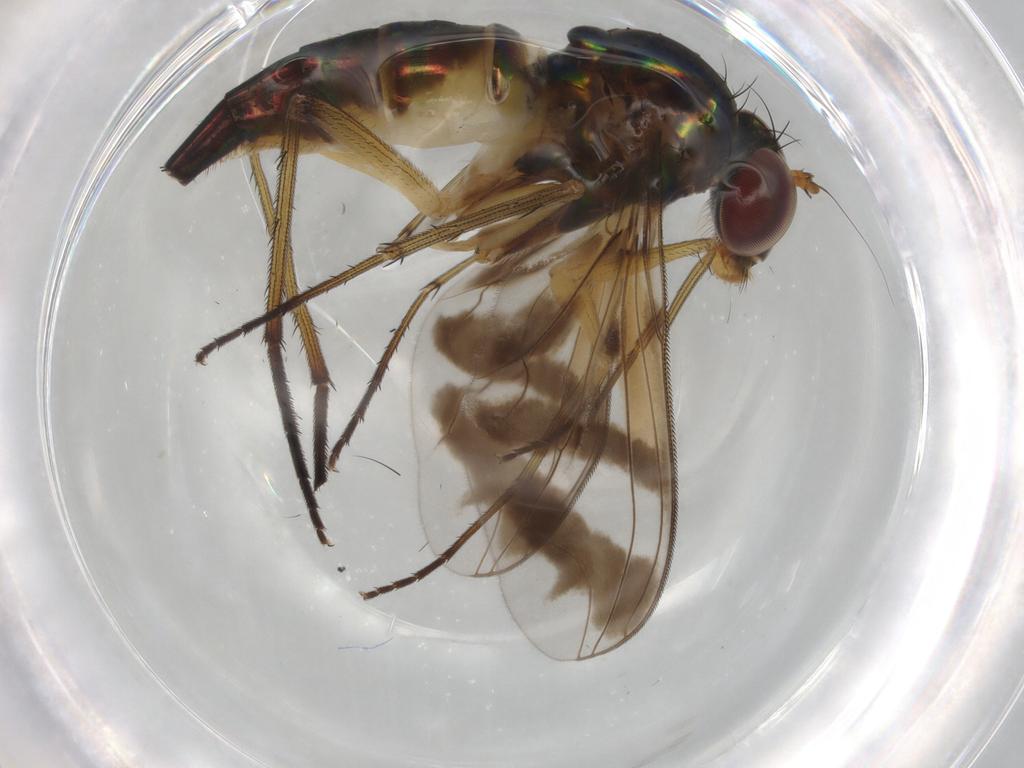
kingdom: Animalia
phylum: Arthropoda
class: Insecta
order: Diptera
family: Dolichopodidae
